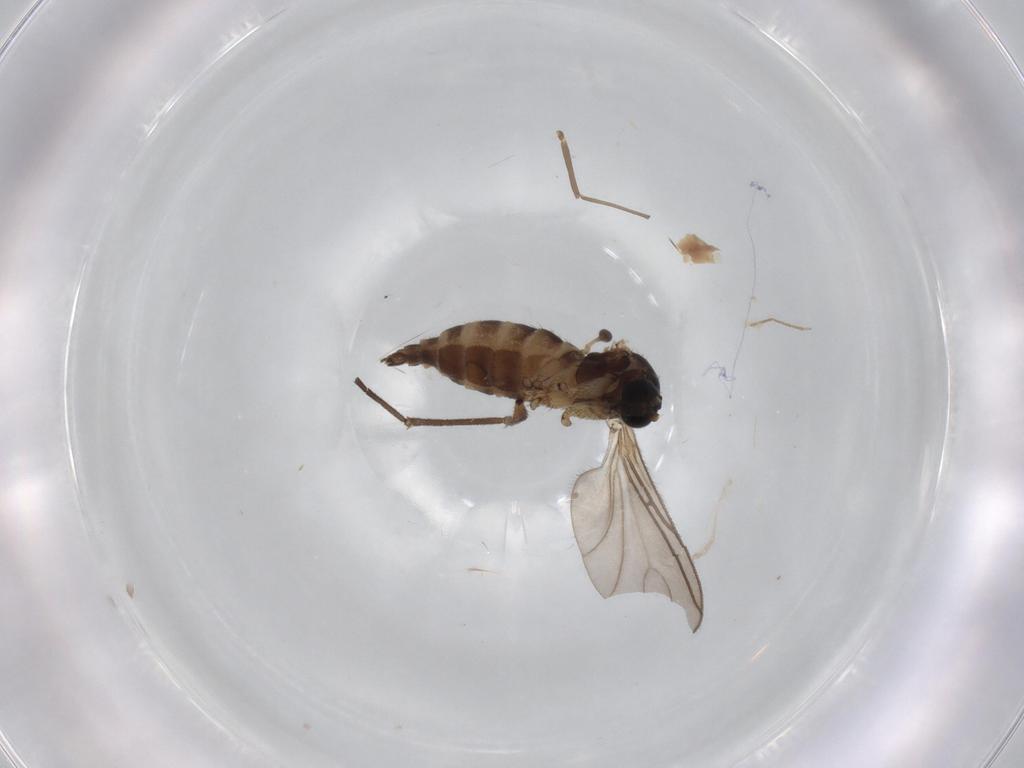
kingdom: Animalia
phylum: Arthropoda
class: Insecta
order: Diptera
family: Sciaridae
